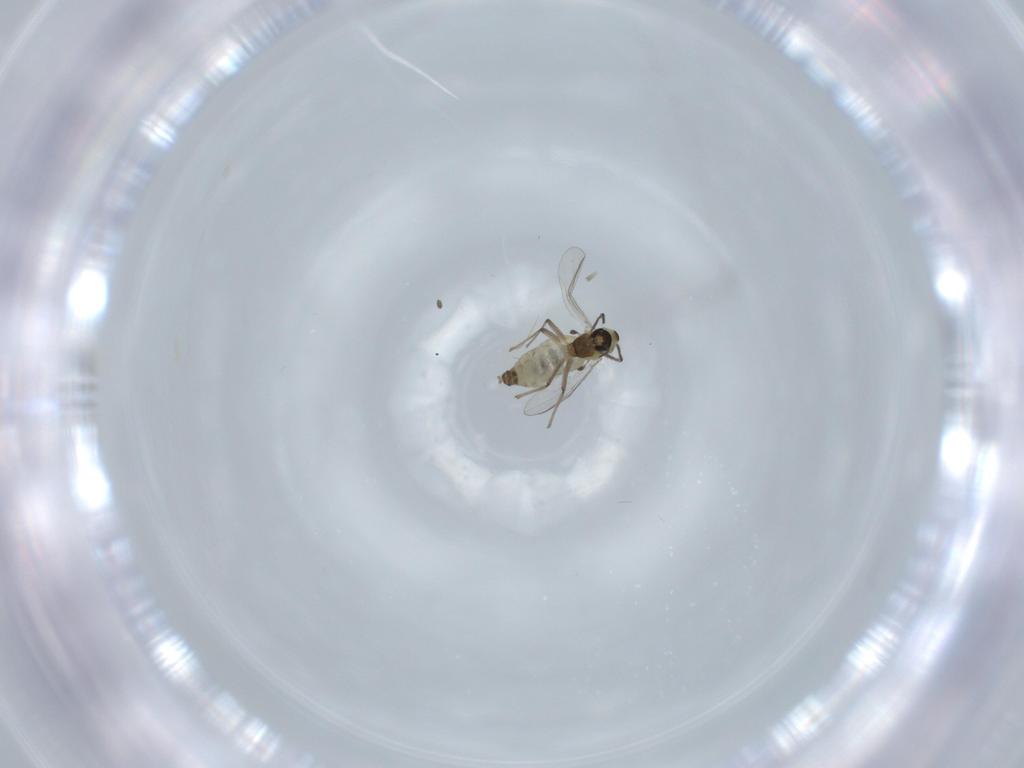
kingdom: Animalia
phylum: Arthropoda
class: Insecta
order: Diptera
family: Chironomidae
